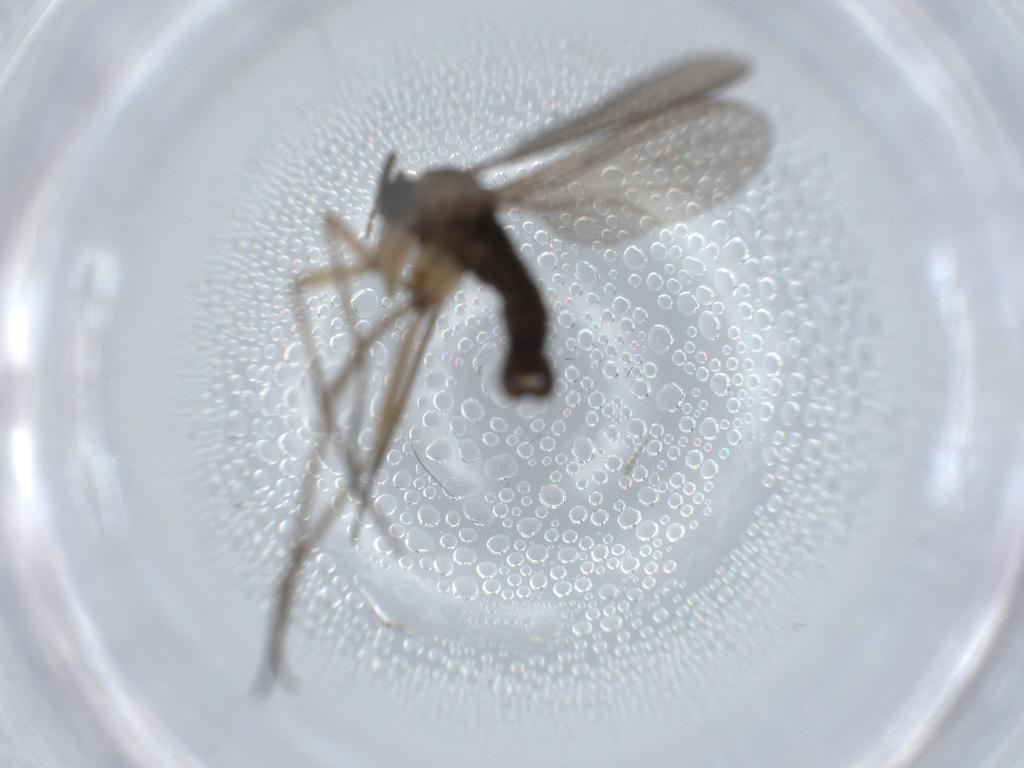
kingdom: Animalia
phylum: Arthropoda
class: Insecta
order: Diptera
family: Sciaridae
